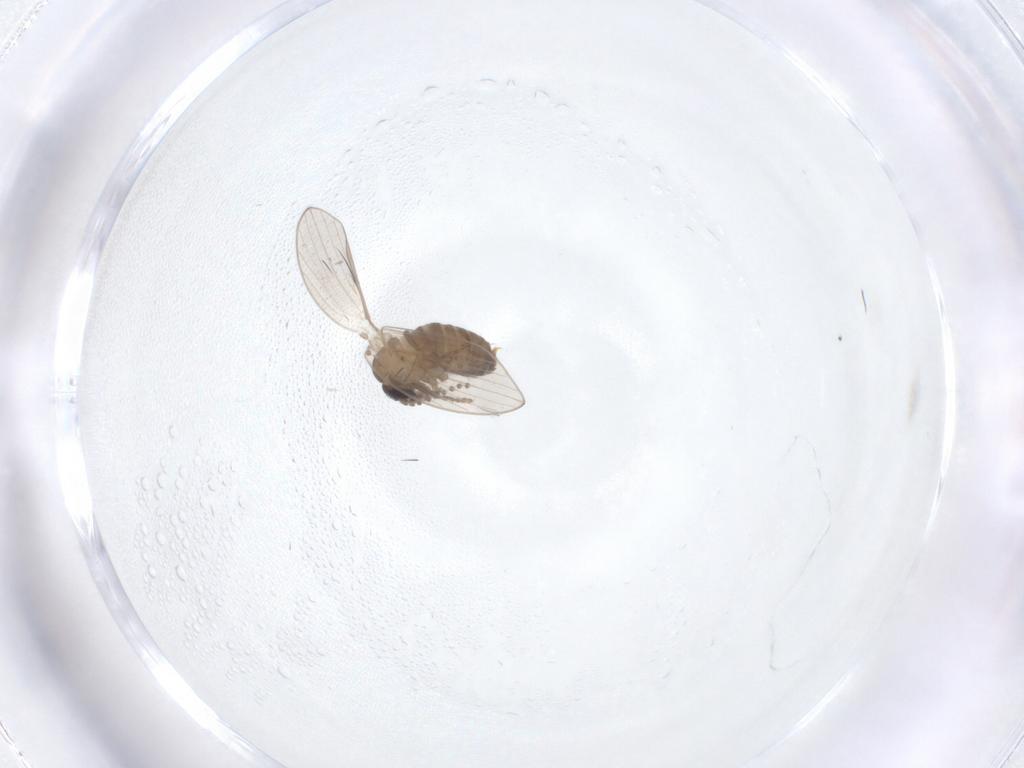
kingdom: Animalia
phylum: Arthropoda
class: Insecta
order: Diptera
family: Psychodidae
